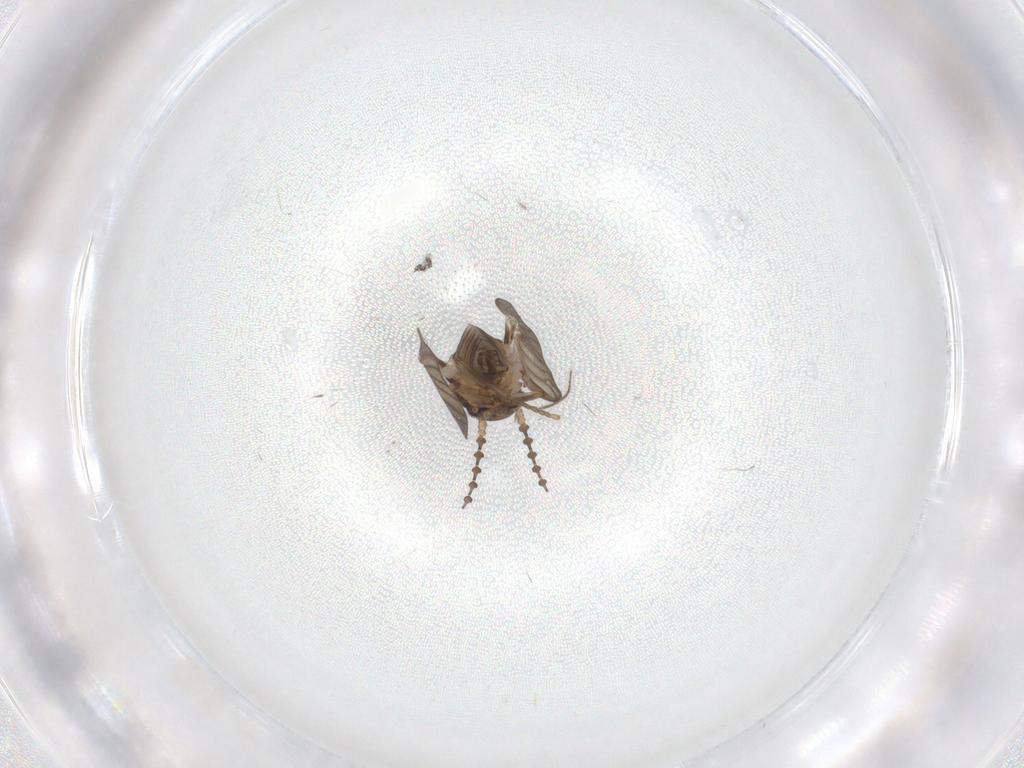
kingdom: Animalia
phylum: Arthropoda
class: Insecta
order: Diptera
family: Psychodidae
